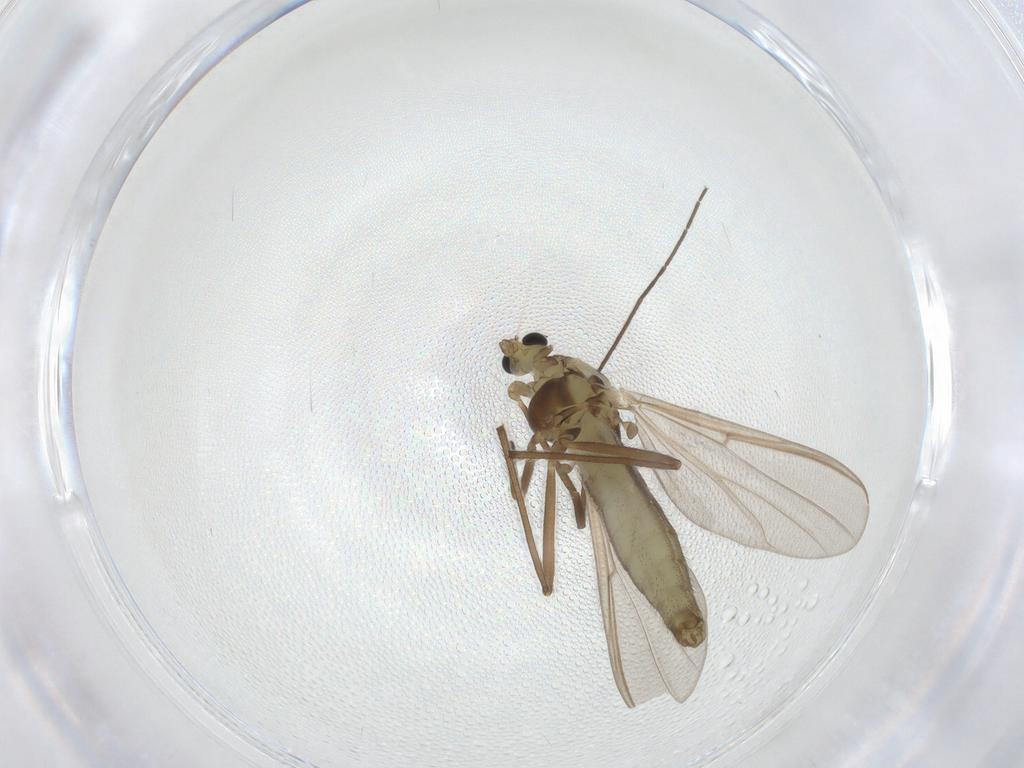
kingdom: Animalia
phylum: Arthropoda
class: Insecta
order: Diptera
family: Chironomidae
